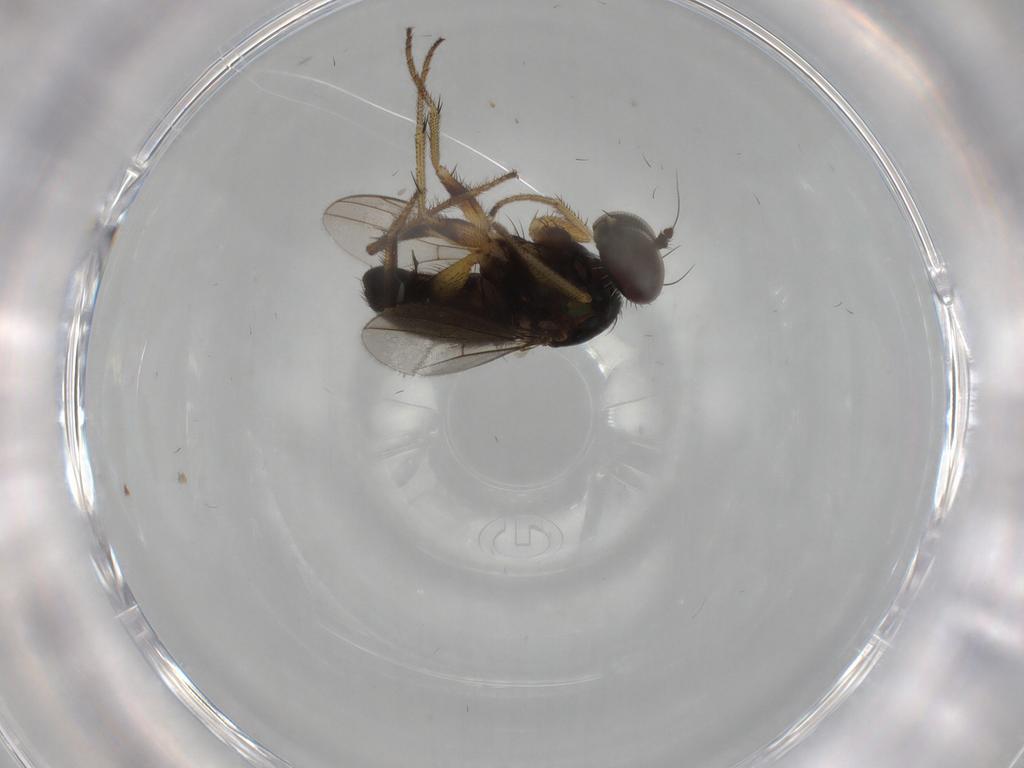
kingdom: Animalia
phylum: Arthropoda
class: Insecta
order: Diptera
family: Dolichopodidae
